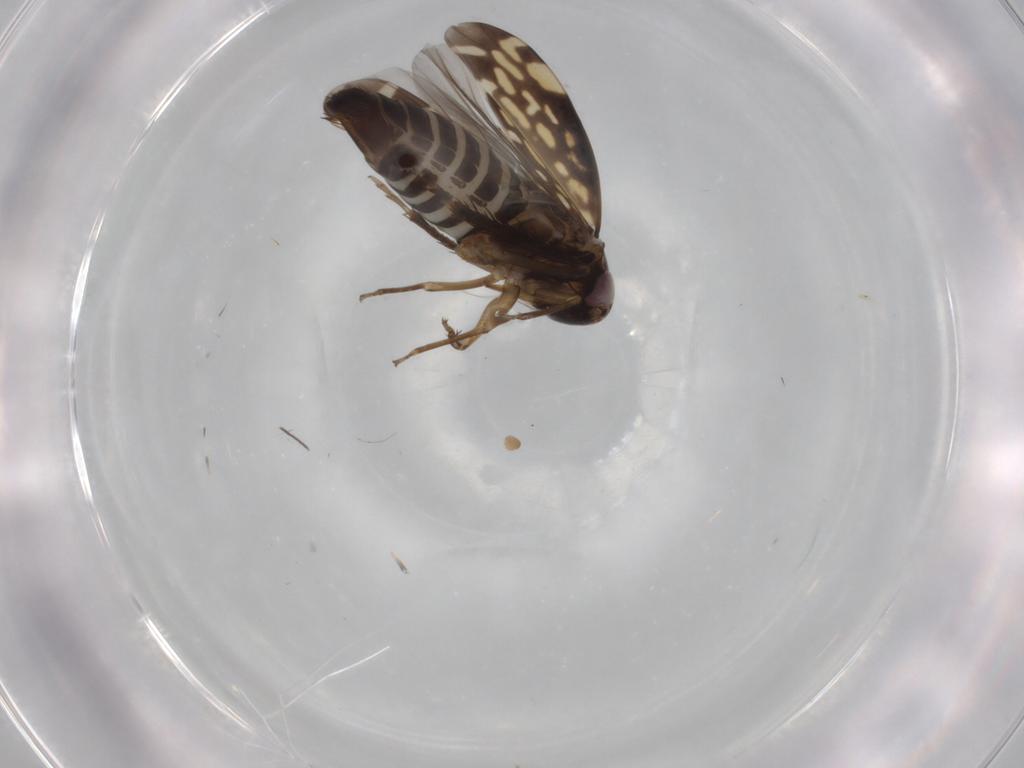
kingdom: Animalia
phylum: Arthropoda
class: Insecta
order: Hemiptera
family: Cicadellidae
